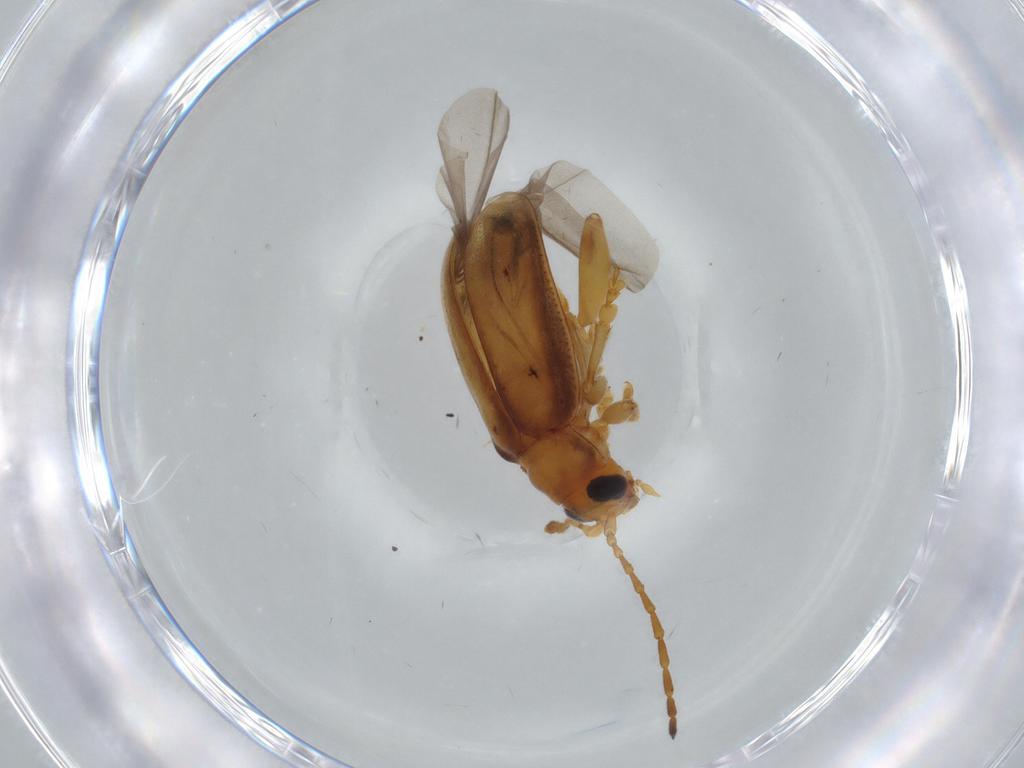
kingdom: Animalia
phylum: Arthropoda
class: Insecta
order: Coleoptera
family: Chrysomelidae
